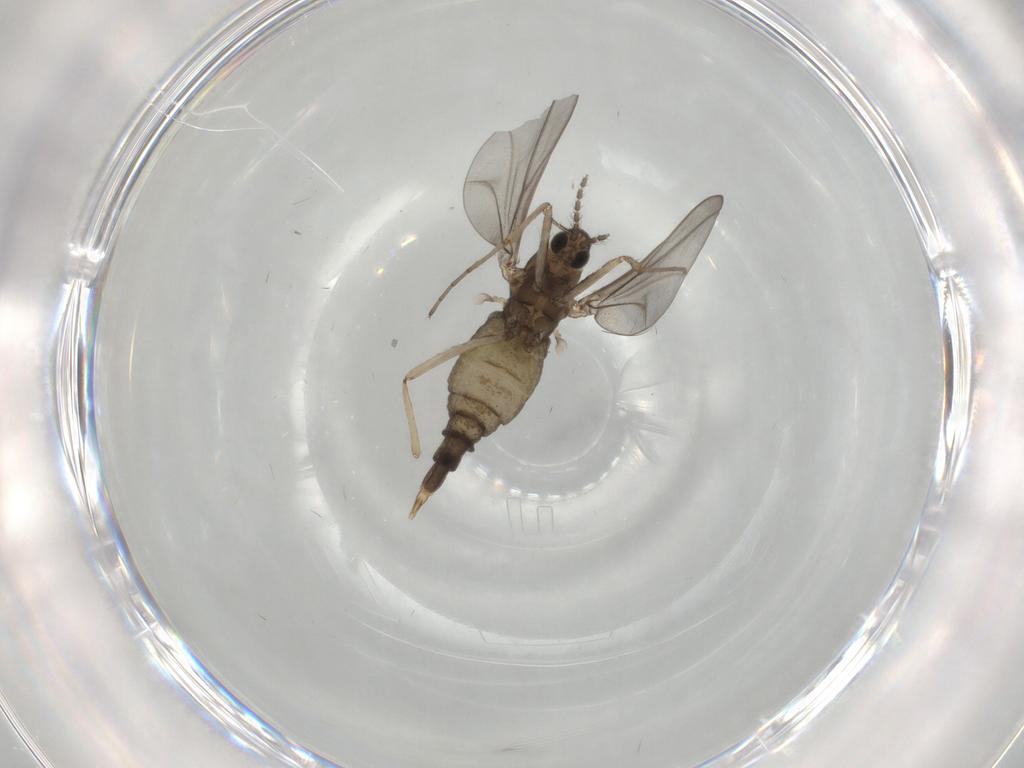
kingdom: Animalia
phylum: Arthropoda
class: Insecta
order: Diptera
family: Cecidomyiidae
